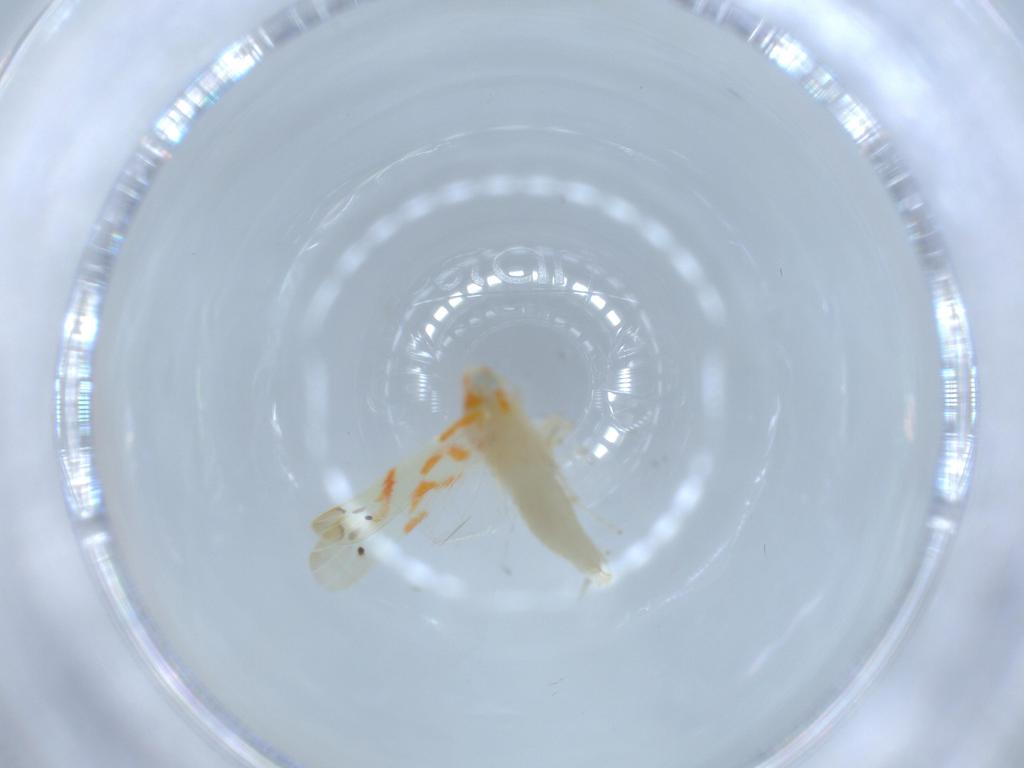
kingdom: Animalia
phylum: Arthropoda
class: Insecta
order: Hemiptera
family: Cicadellidae
